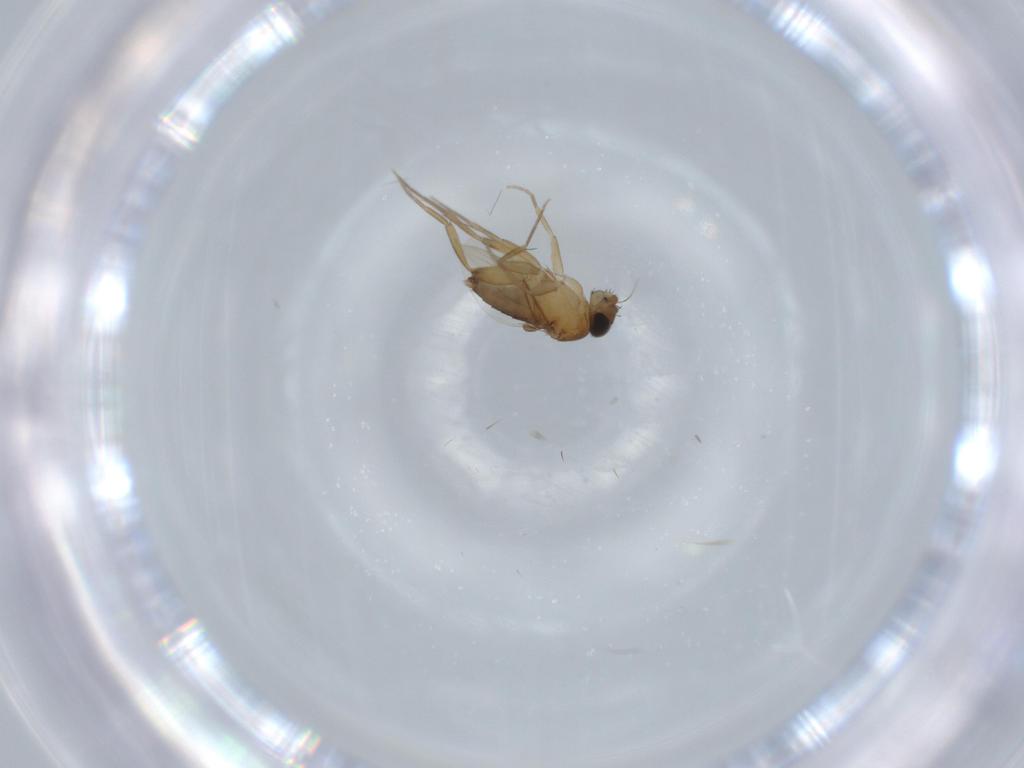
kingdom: Animalia
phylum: Arthropoda
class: Insecta
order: Diptera
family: Phoridae
